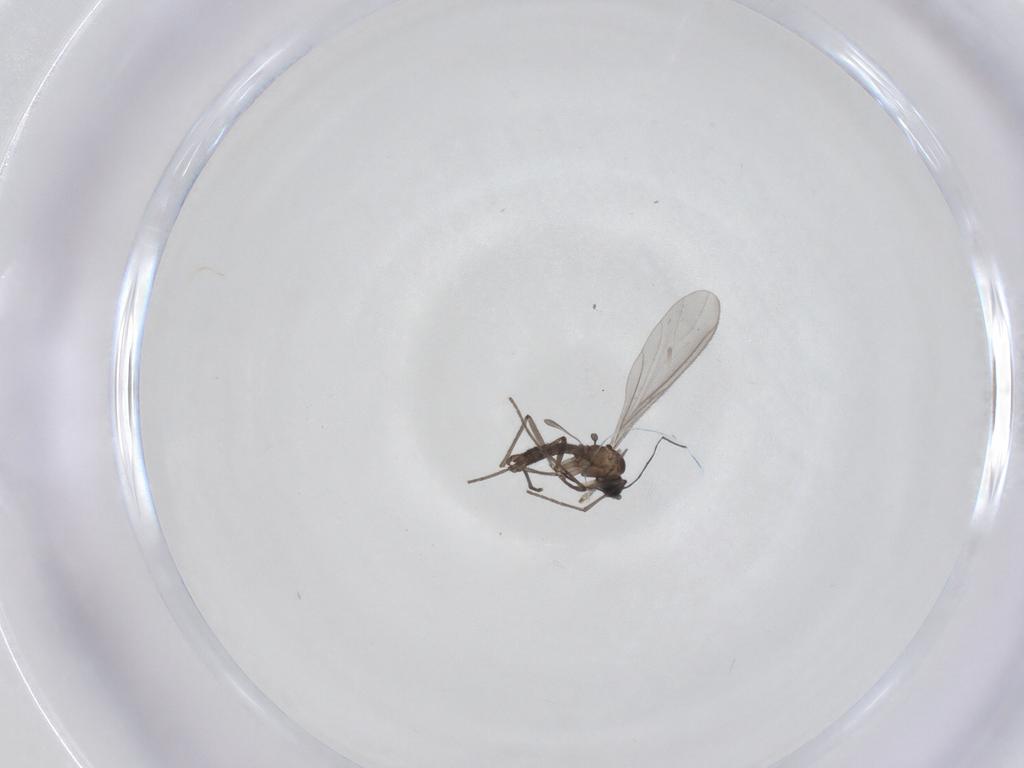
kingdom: Animalia
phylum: Arthropoda
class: Insecta
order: Diptera
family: Sciaridae
